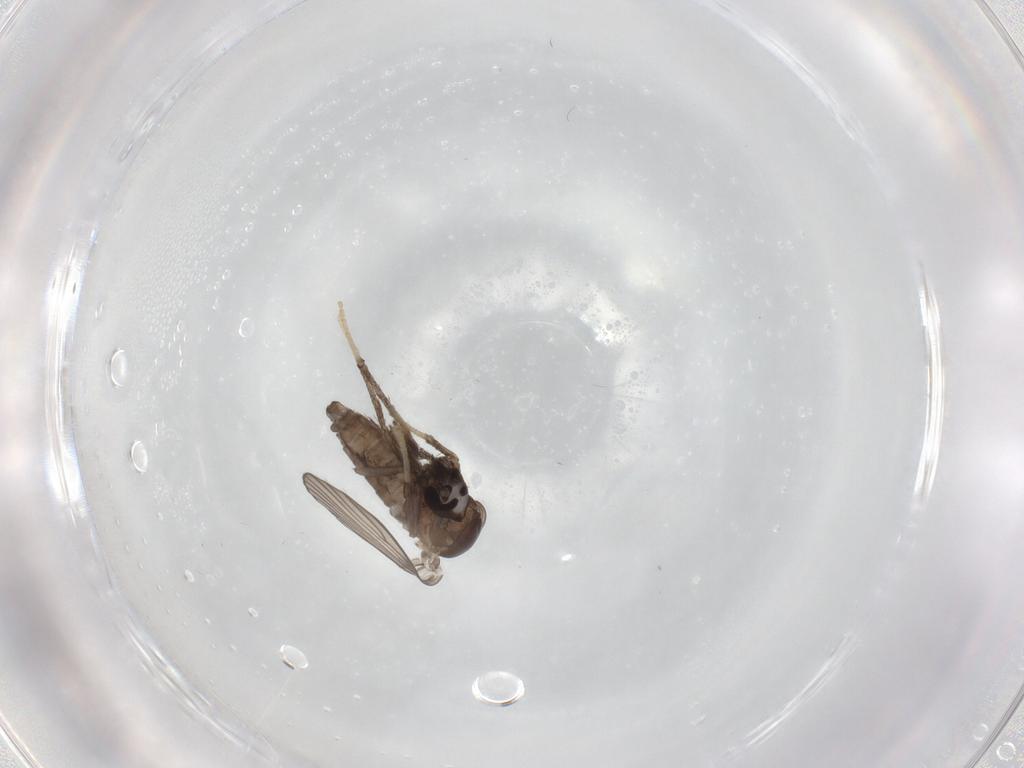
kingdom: Animalia
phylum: Arthropoda
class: Insecta
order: Diptera
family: Psychodidae
